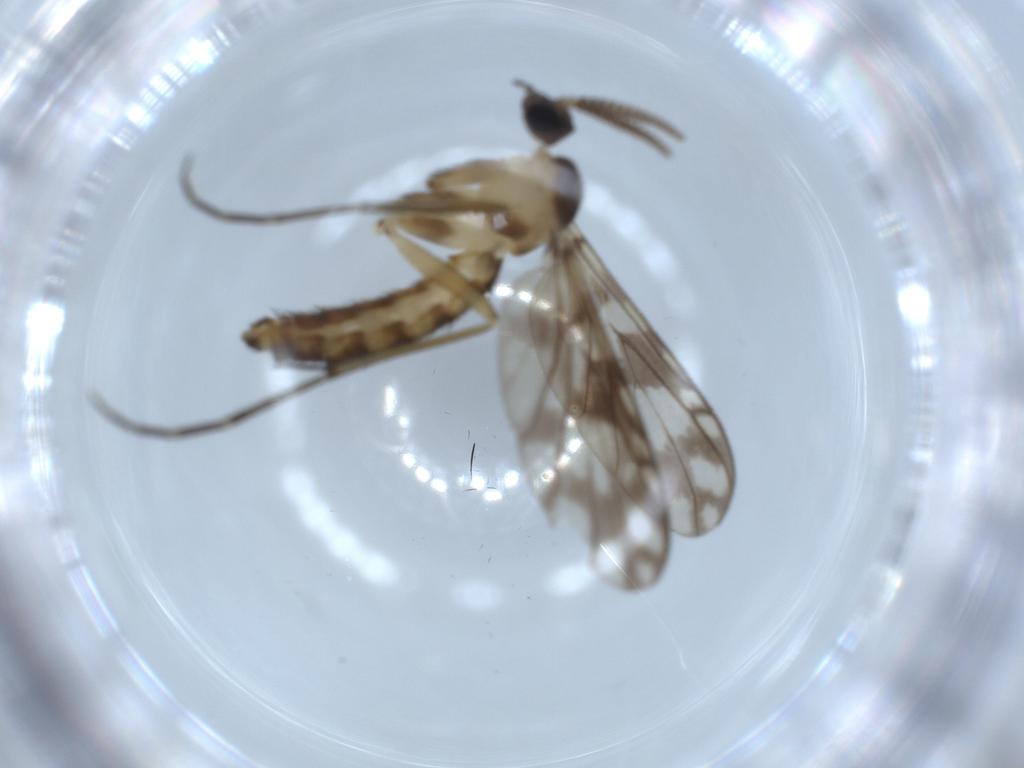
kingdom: Animalia
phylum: Arthropoda
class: Insecta
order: Diptera
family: Keroplatidae
